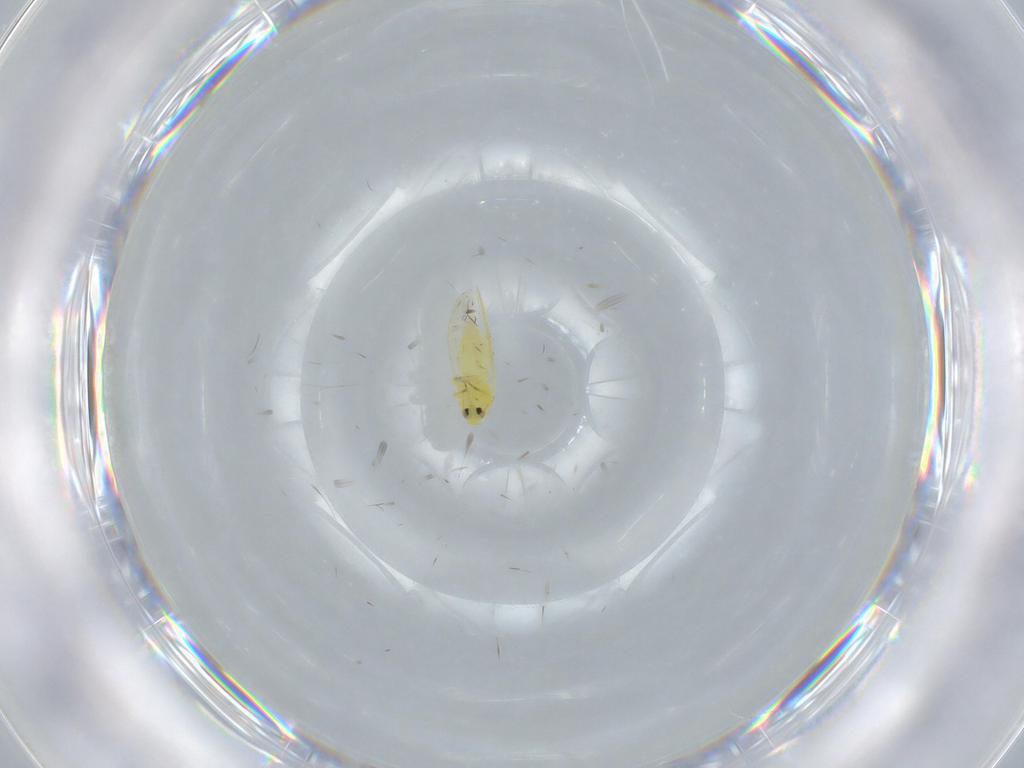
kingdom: Animalia
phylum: Arthropoda
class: Insecta
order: Hemiptera
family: Aleyrodidae
